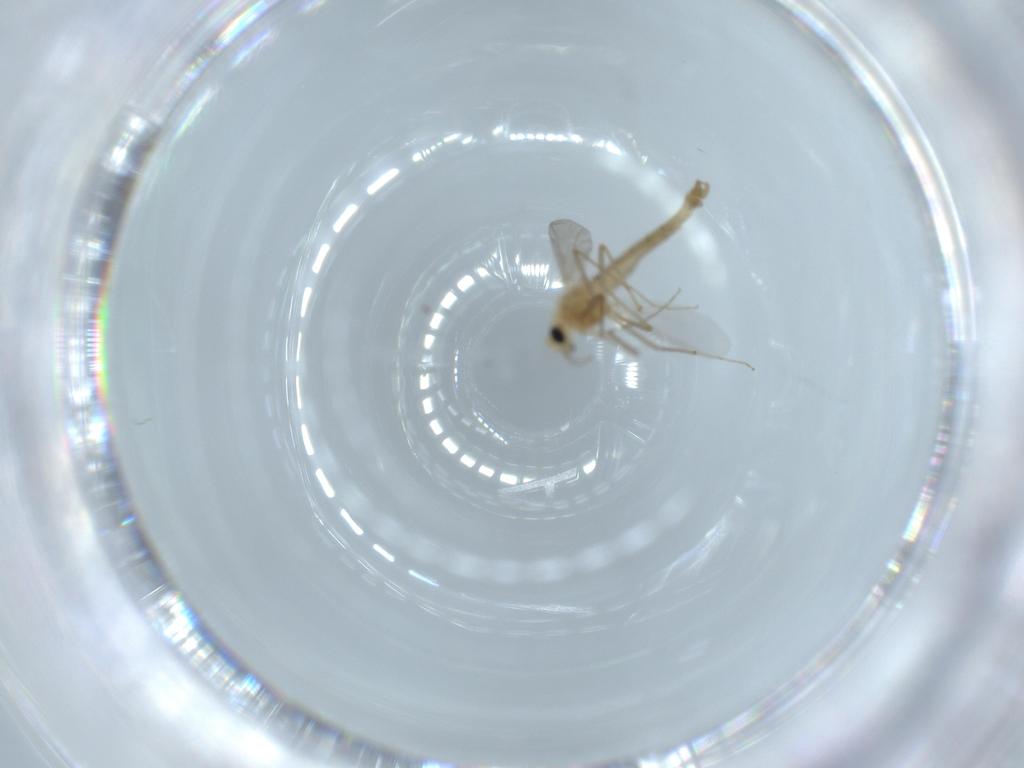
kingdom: Animalia
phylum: Arthropoda
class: Insecta
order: Diptera
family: Chironomidae
